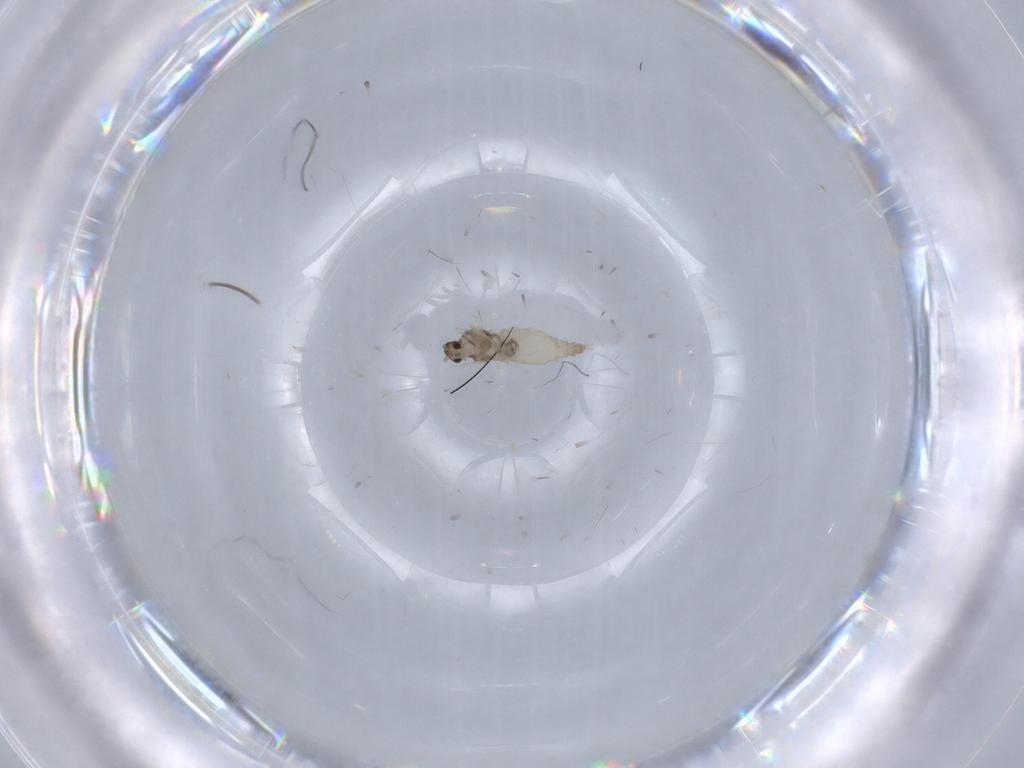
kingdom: Animalia
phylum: Arthropoda
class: Insecta
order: Diptera
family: Cecidomyiidae
